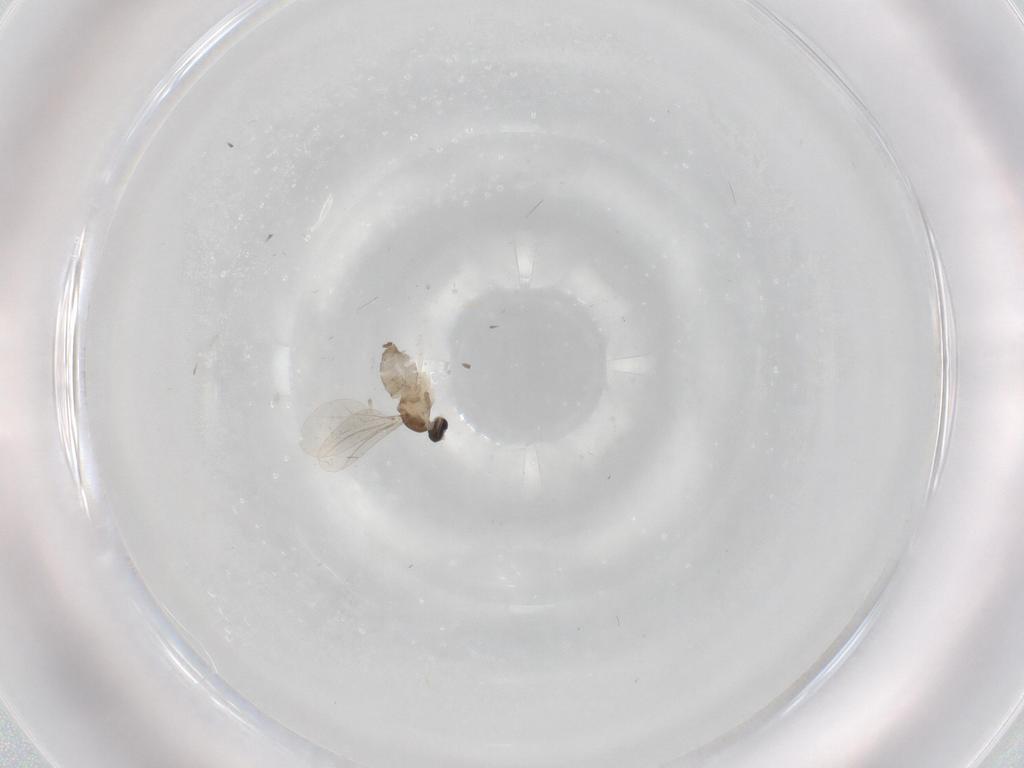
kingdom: Animalia
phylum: Arthropoda
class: Insecta
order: Diptera
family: Cecidomyiidae
